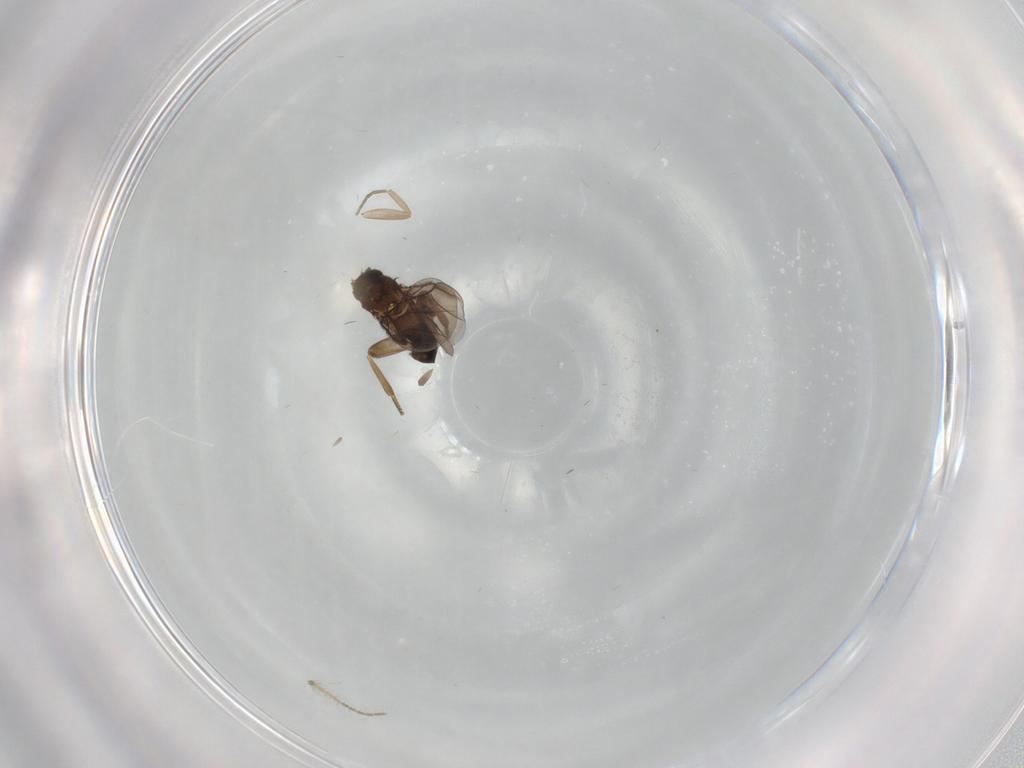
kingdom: Animalia
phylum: Arthropoda
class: Insecta
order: Diptera
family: Ceratopogonidae
